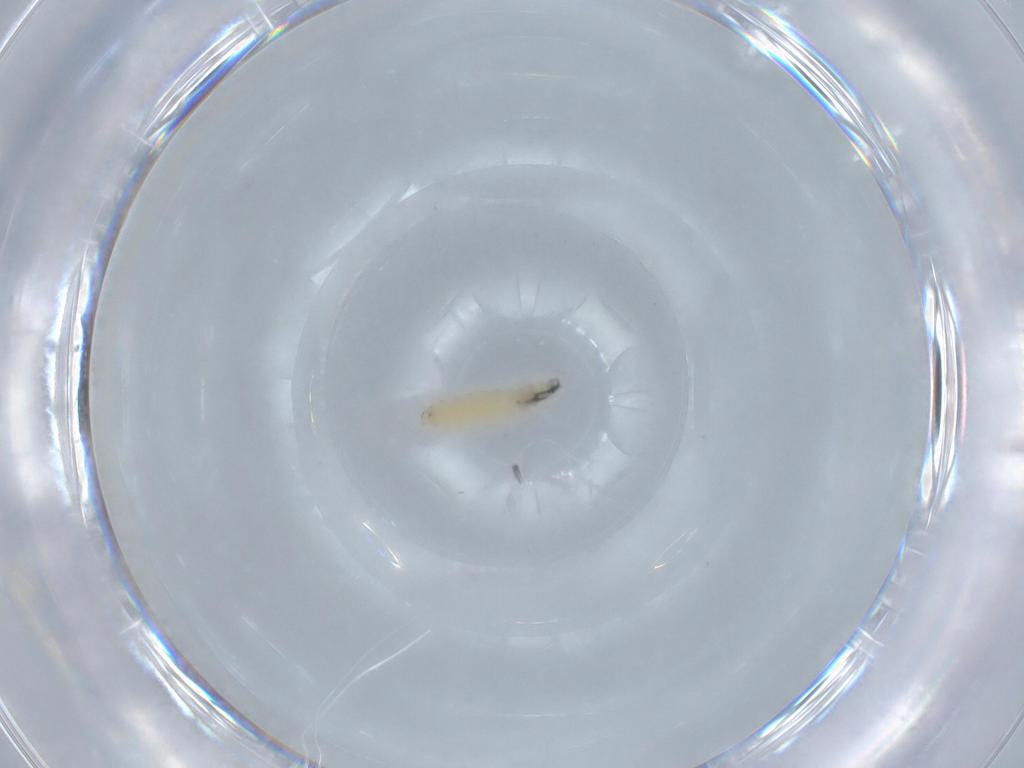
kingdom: Animalia
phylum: Arthropoda
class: Insecta
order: Diptera
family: Sarcophagidae
